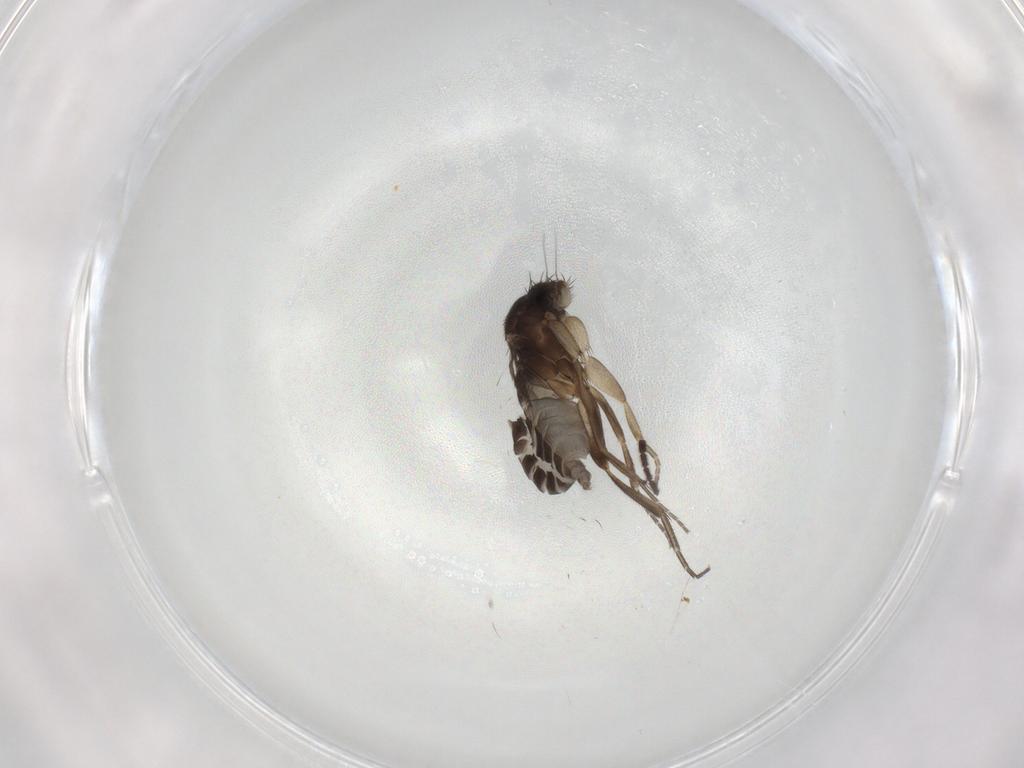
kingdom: Animalia
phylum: Arthropoda
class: Insecta
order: Diptera
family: Phoridae
